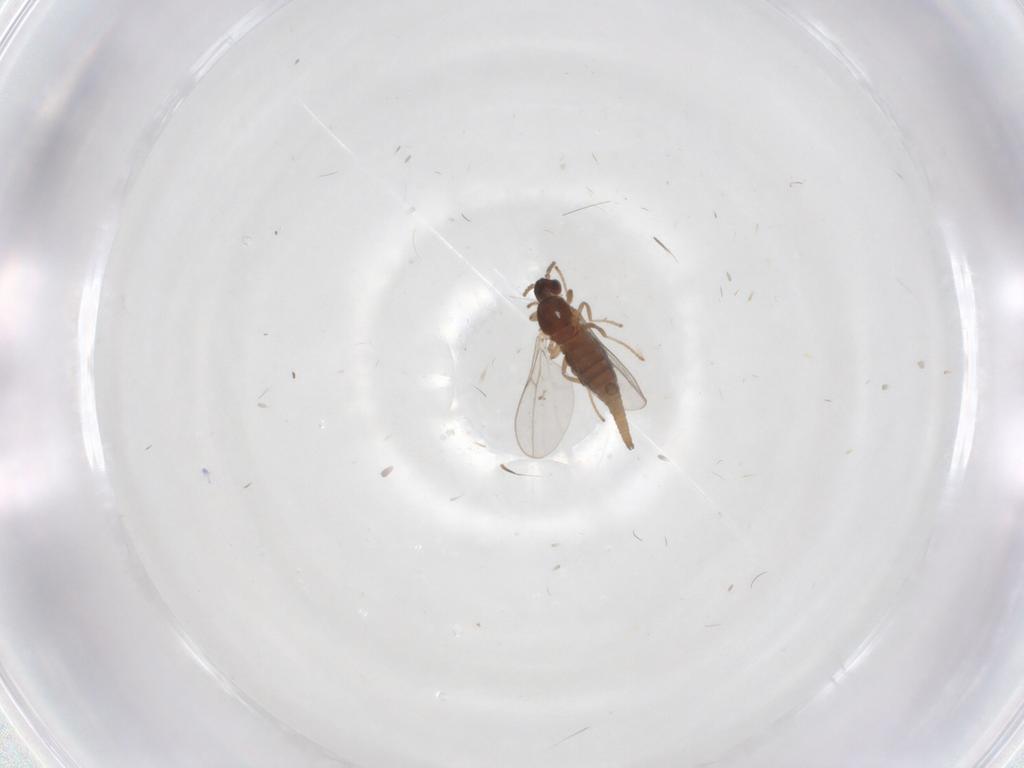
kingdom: Animalia
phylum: Arthropoda
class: Insecta
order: Diptera
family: Cecidomyiidae
